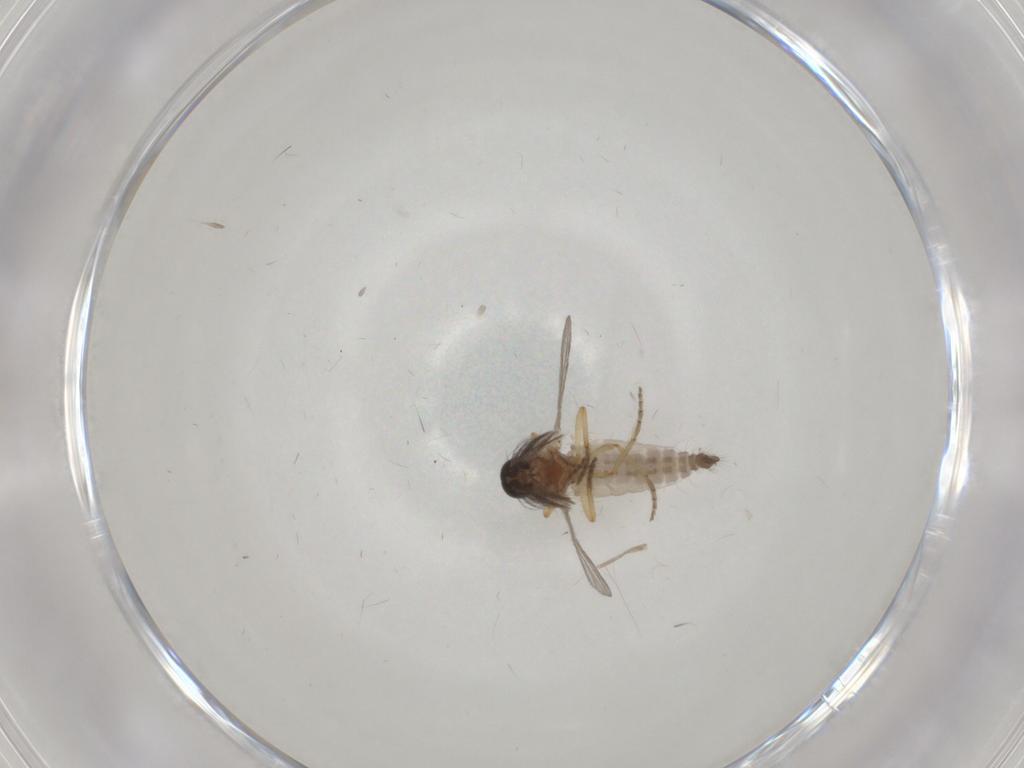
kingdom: Animalia
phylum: Arthropoda
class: Insecta
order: Diptera
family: Ceratopogonidae
